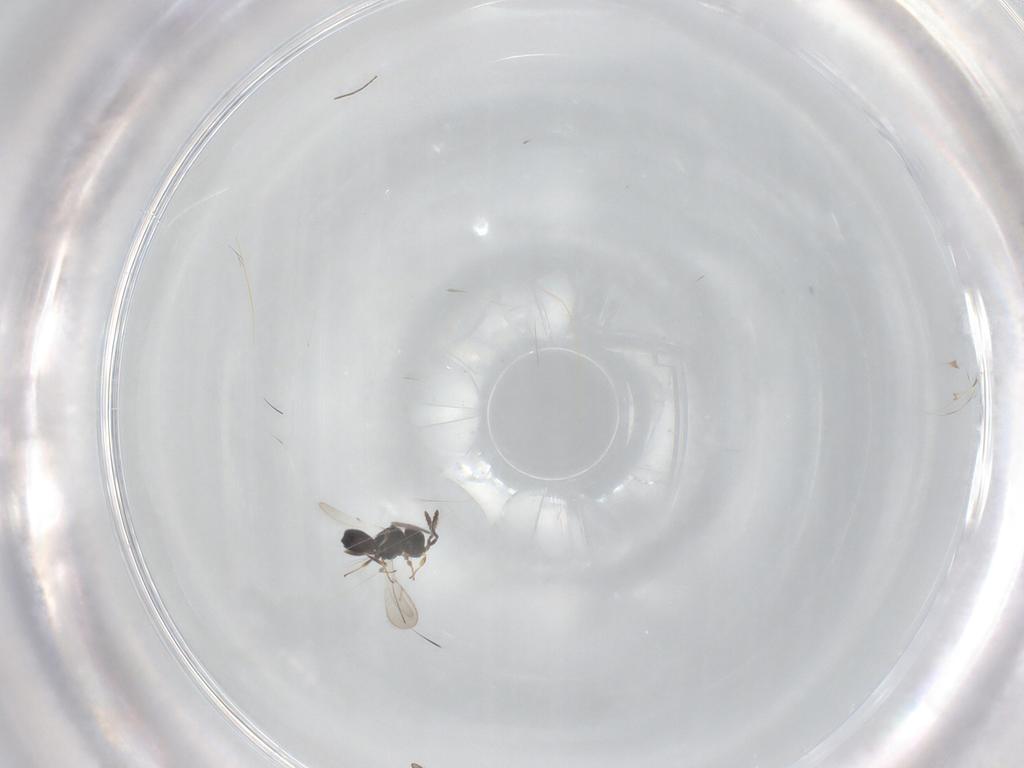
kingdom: Animalia
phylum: Arthropoda
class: Insecta
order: Hymenoptera
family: Scelionidae
